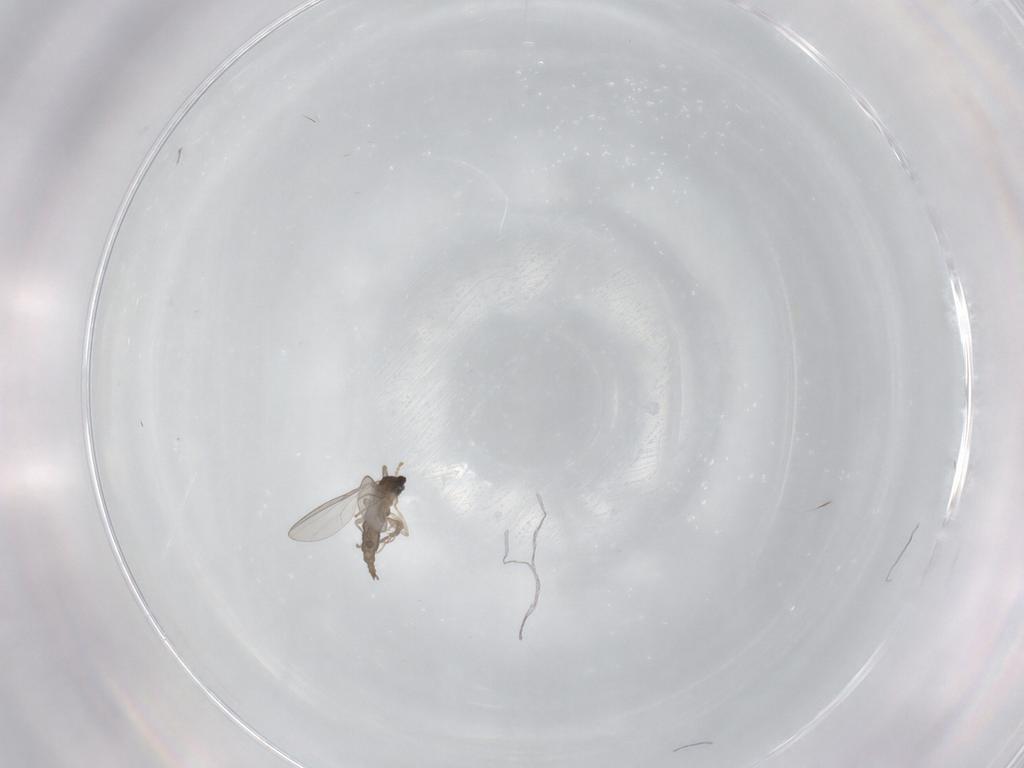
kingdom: Animalia
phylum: Arthropoda
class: Insecta
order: Diptera
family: Cecidomyiidae
